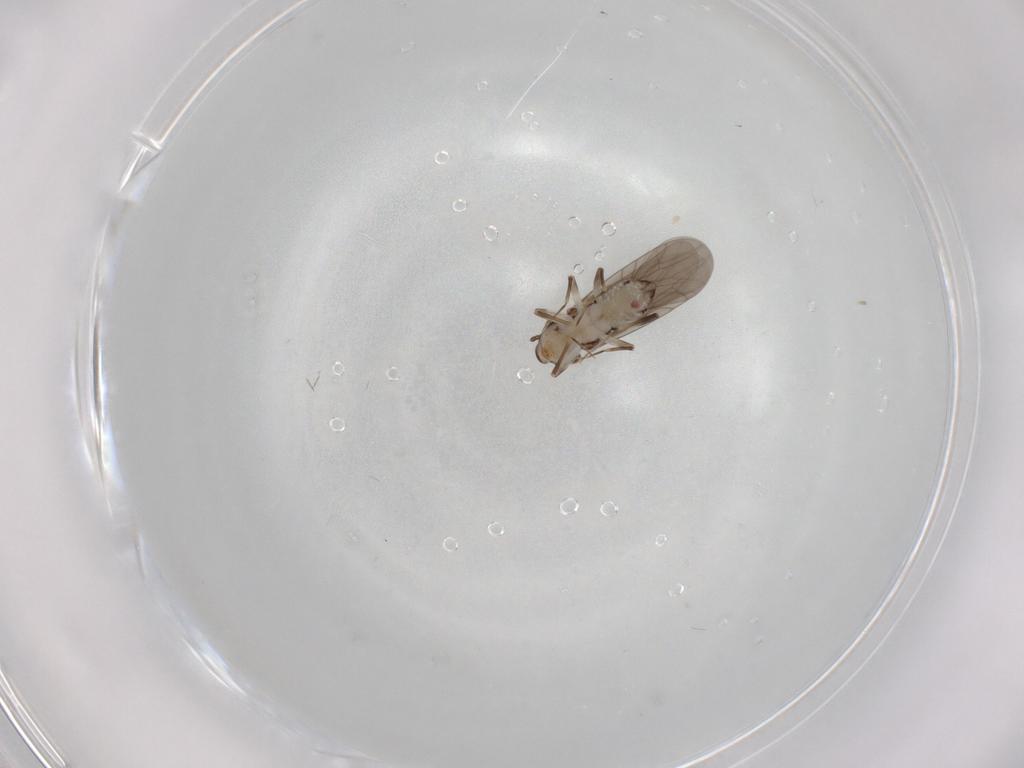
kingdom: Animalia
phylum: Arthropoda
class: Insecta
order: Psocodea
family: Lepidopsocidae
